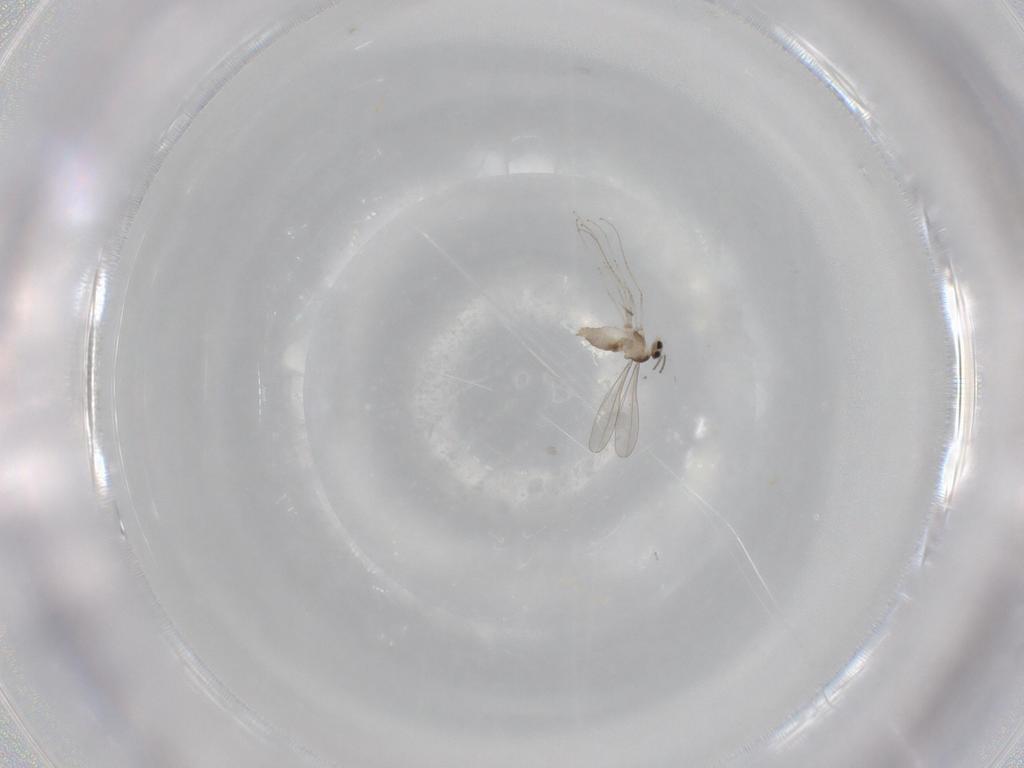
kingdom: Animalia
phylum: Arthropoda
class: Insecta
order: Diptera
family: Cecidomyiidae
